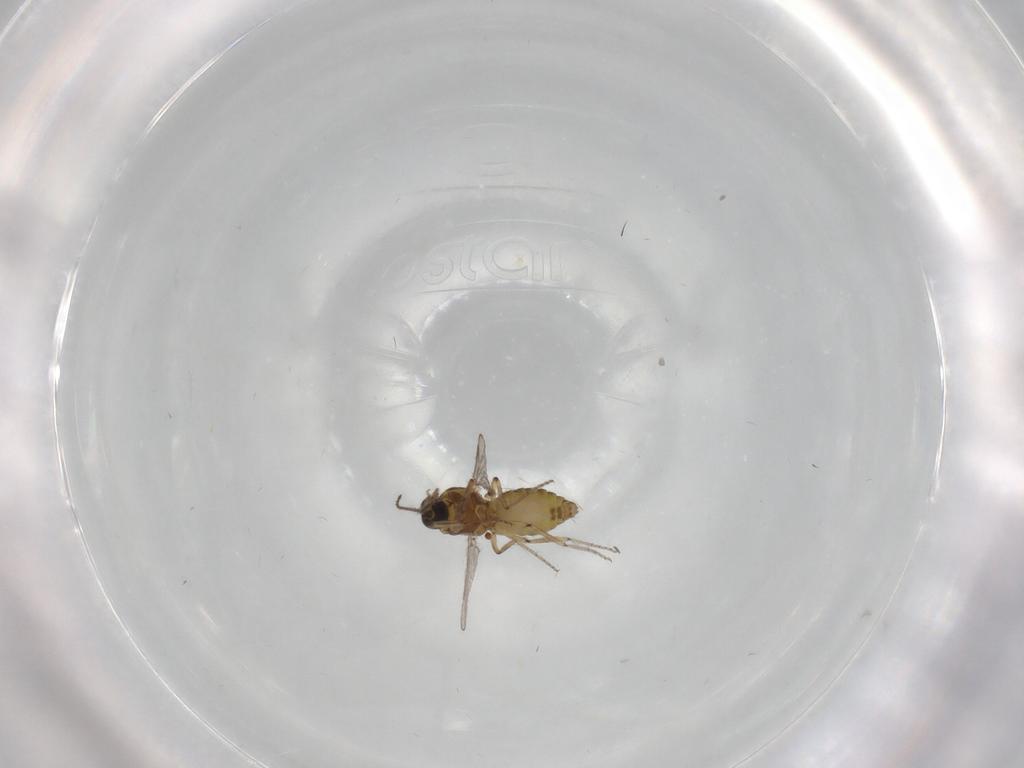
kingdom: Animalia
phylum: Arthropoda
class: Insecta
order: Diptera
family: Ceratopogonidae
